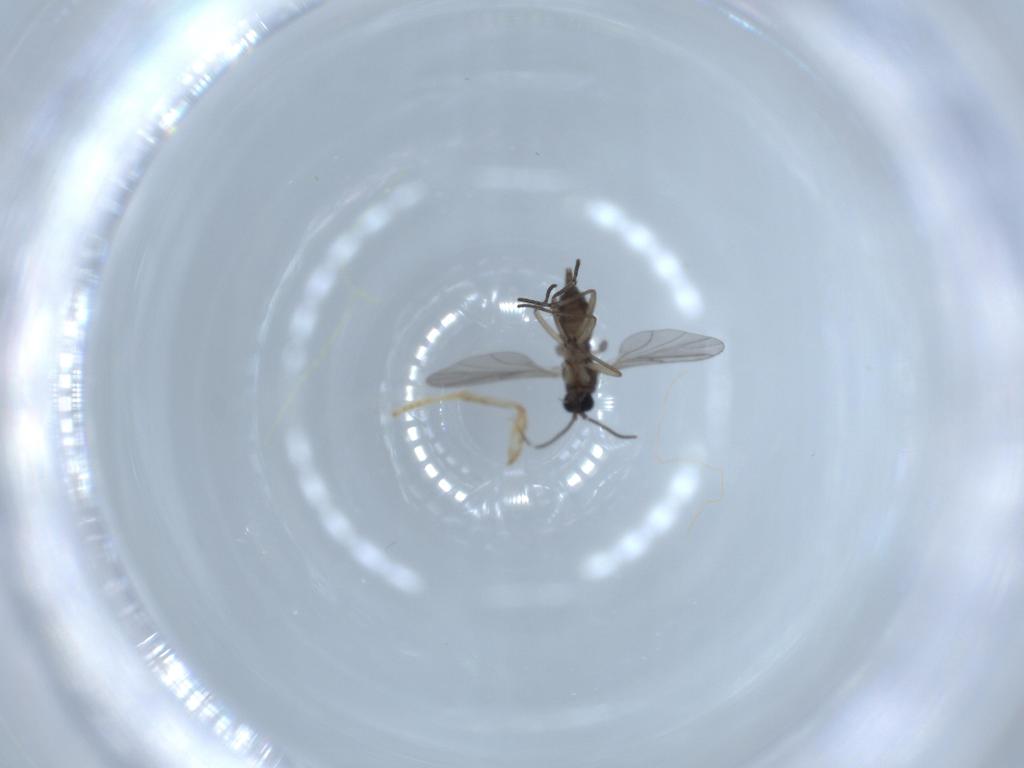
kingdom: Animalia
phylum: Arthropoda
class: Insecta
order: Diptera
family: Sciaridae
